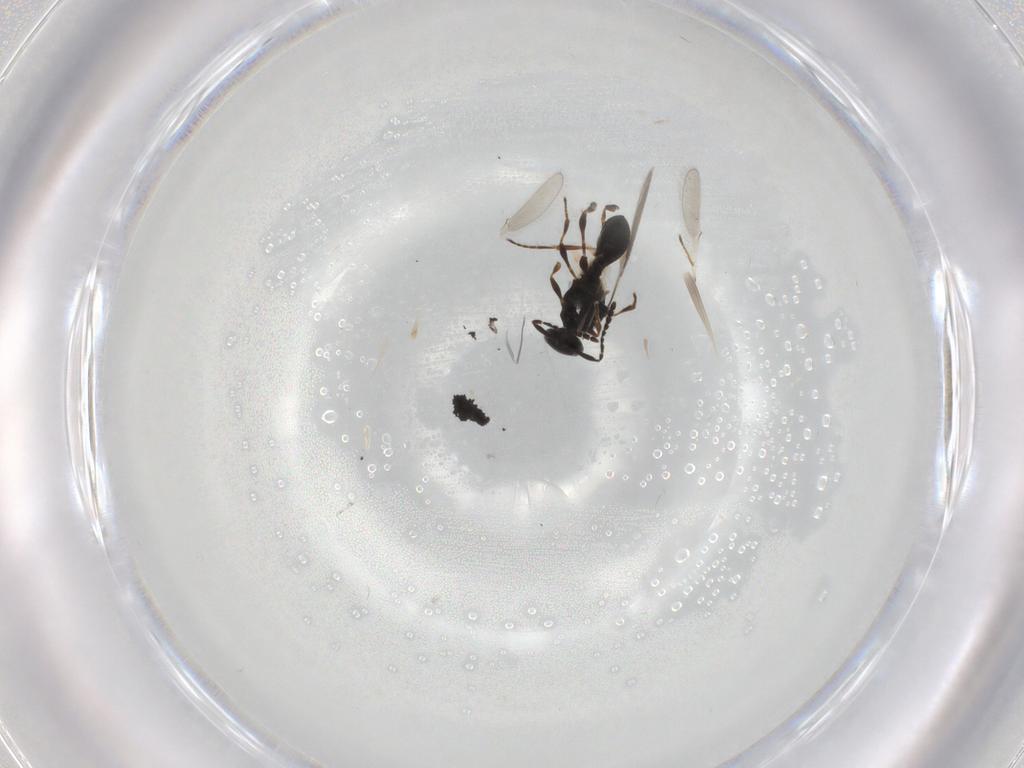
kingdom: Animalia
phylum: Arthropoda
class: Insecta
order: Hymenoptera
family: Platygastridae
